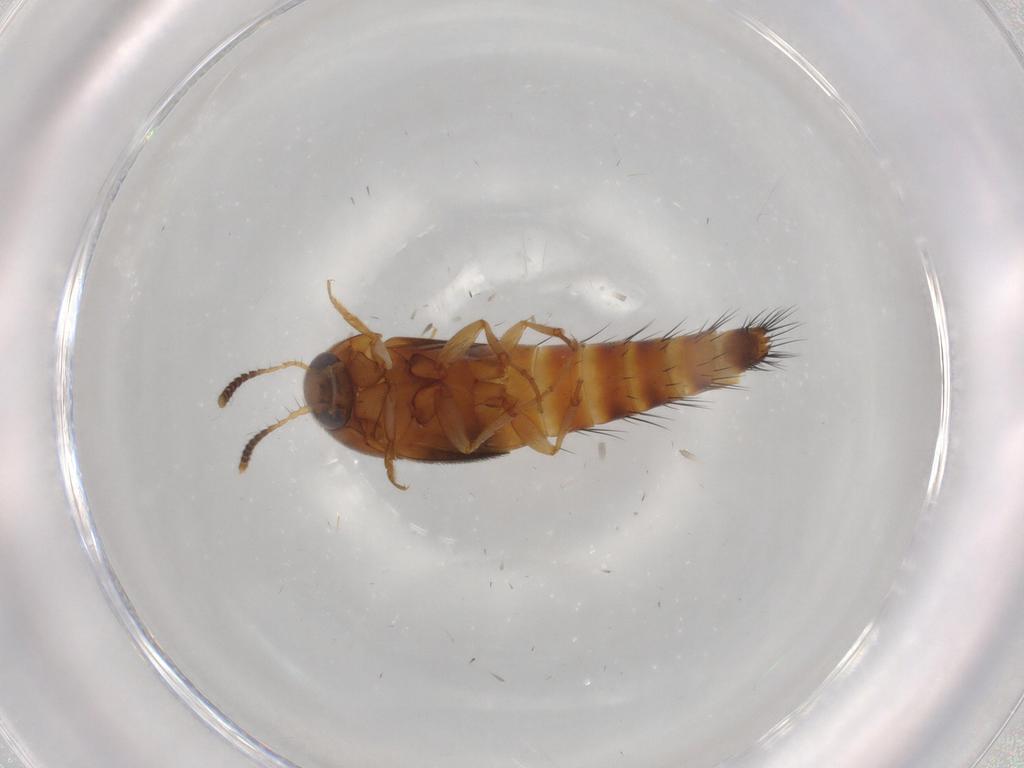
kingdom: Animalia
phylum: Arthropoda
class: Insecta
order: Coleoptera
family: Staphylinidae
